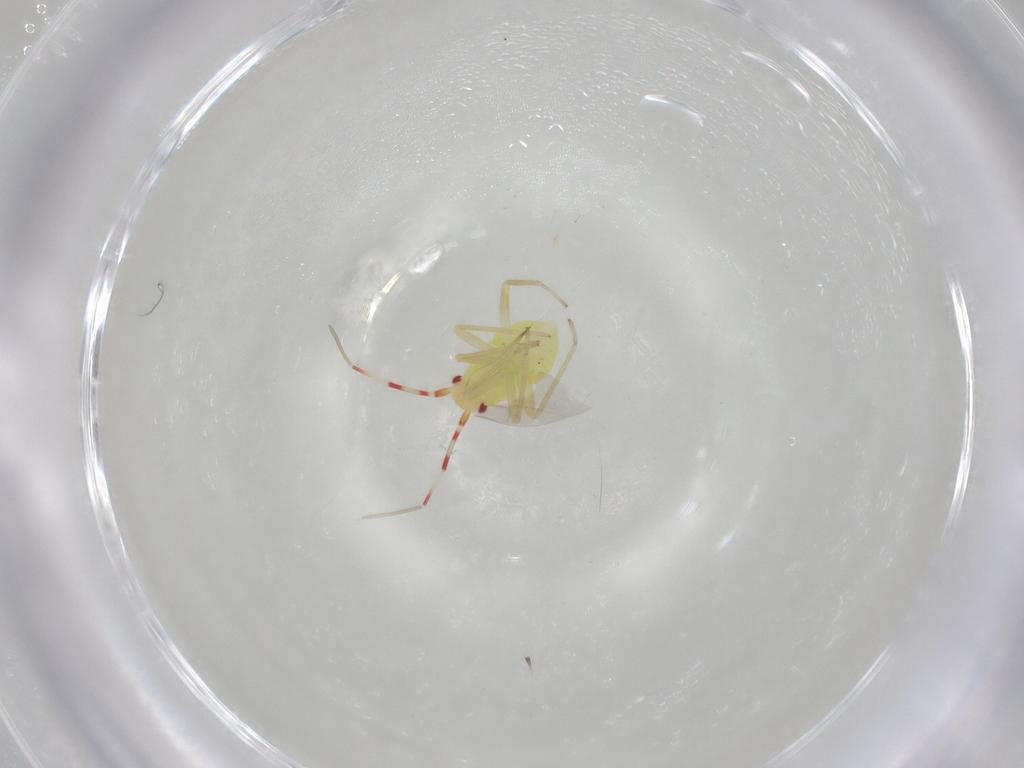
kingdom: Animalia
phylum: Arthropoda
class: Insecta
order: Hemiptera
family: Miridae
